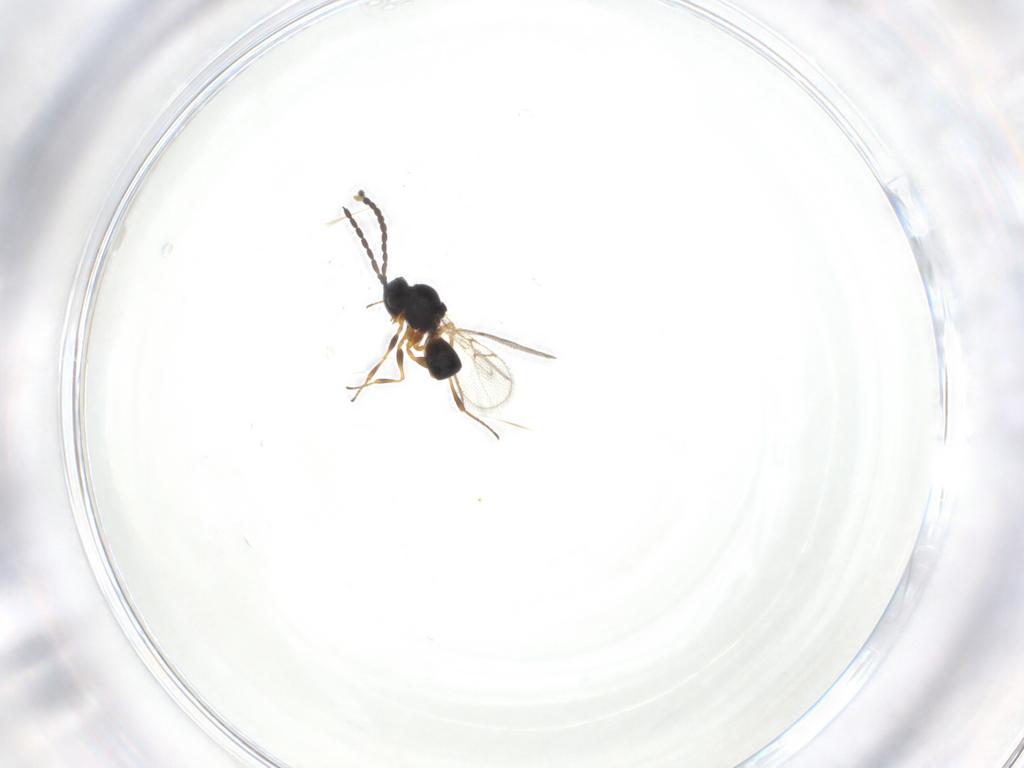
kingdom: Animalia
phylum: Arthropoda
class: Insecta
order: Hymenoptera
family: Figitidae
